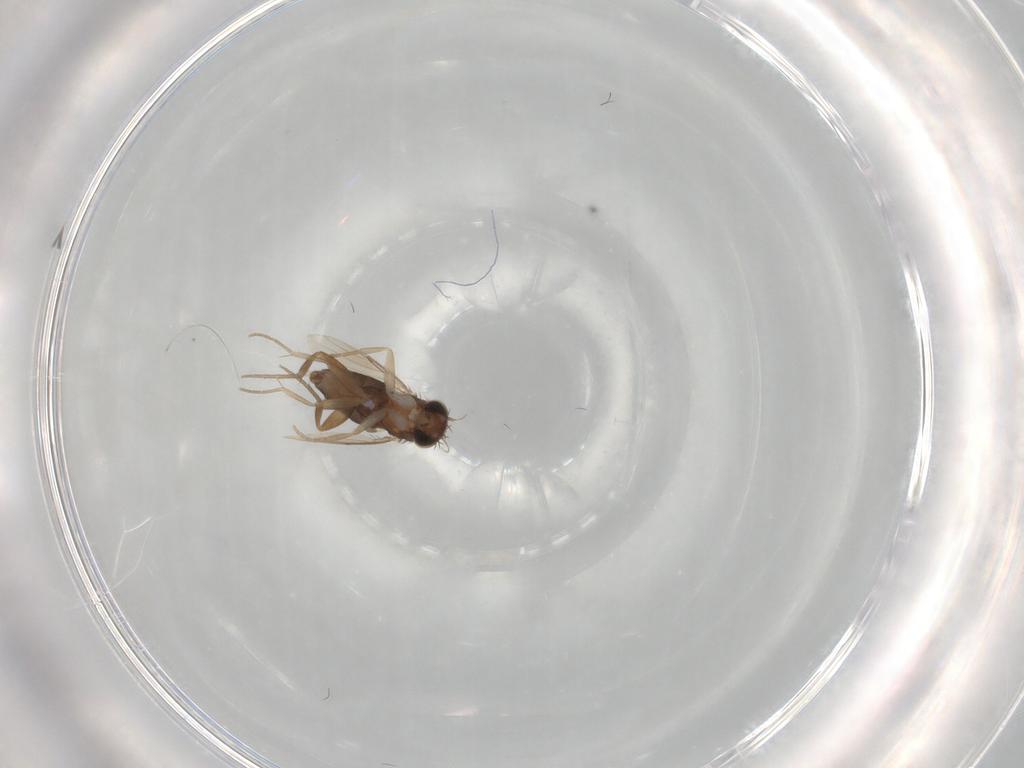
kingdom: Animalia
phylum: Arthropoda
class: Insecta
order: Diptera
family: Phoridae
